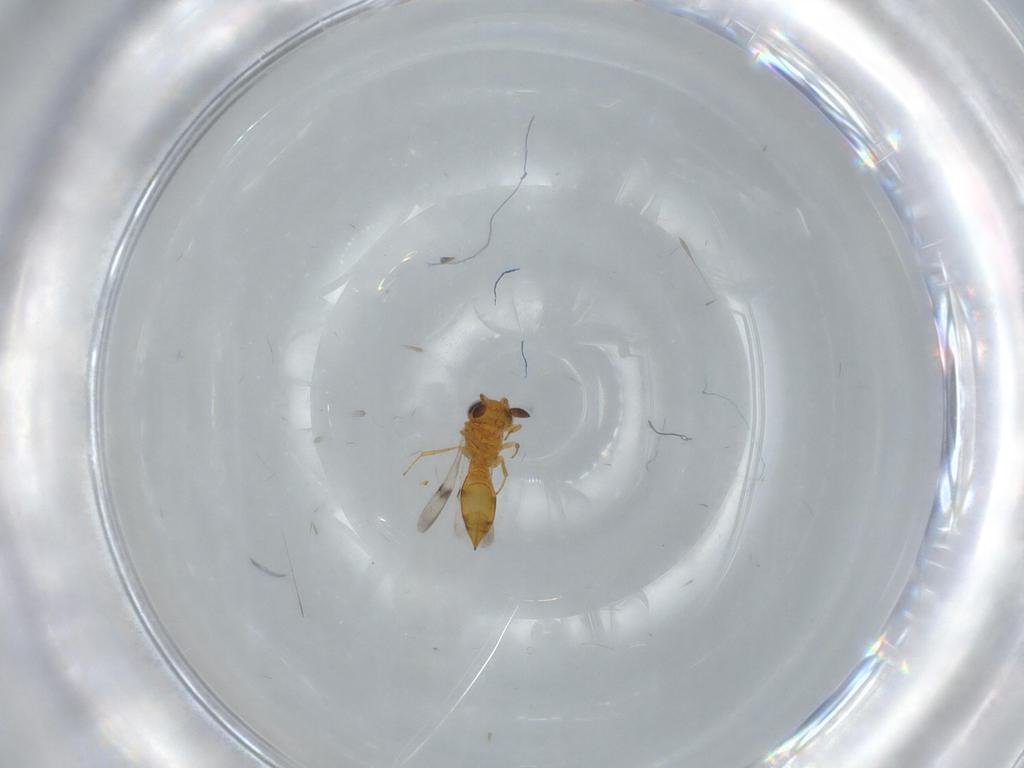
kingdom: Animalia
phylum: Arthropoda
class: Insecta
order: Hymenoptera
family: Scelionidae
